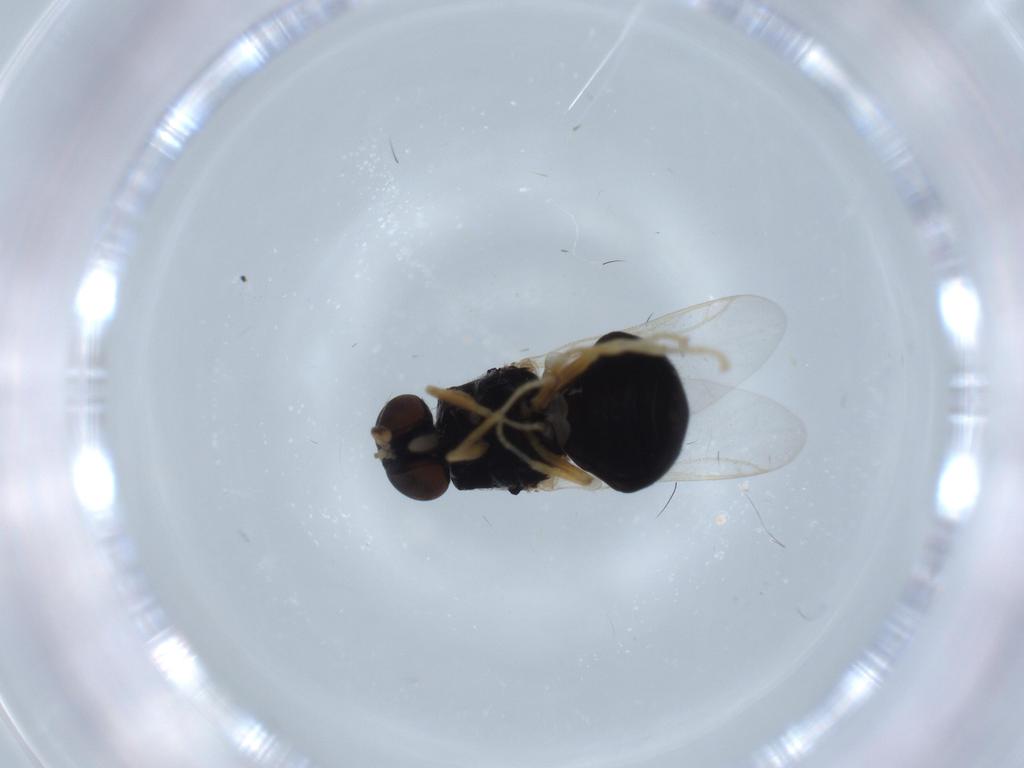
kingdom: Animalia
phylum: Arthropoda
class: Insecta
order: Diptera
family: Stratiomyidae
